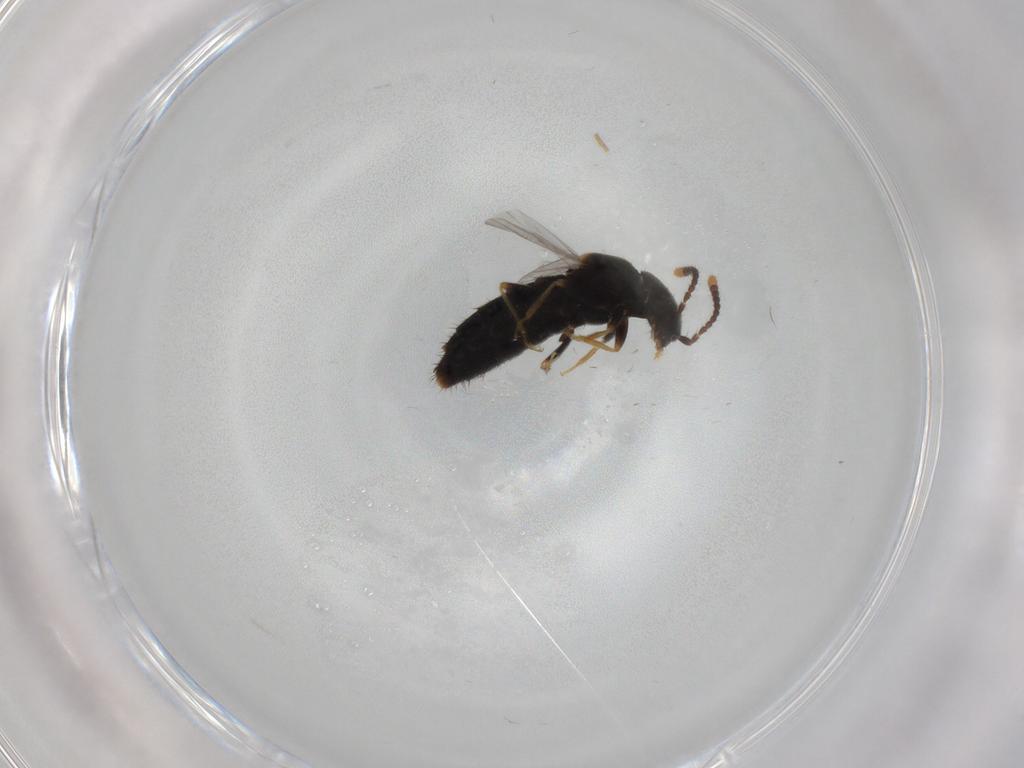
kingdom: Animalia
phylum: Arthropoda
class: Insecta
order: Coleoptera
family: Staphylinidae
